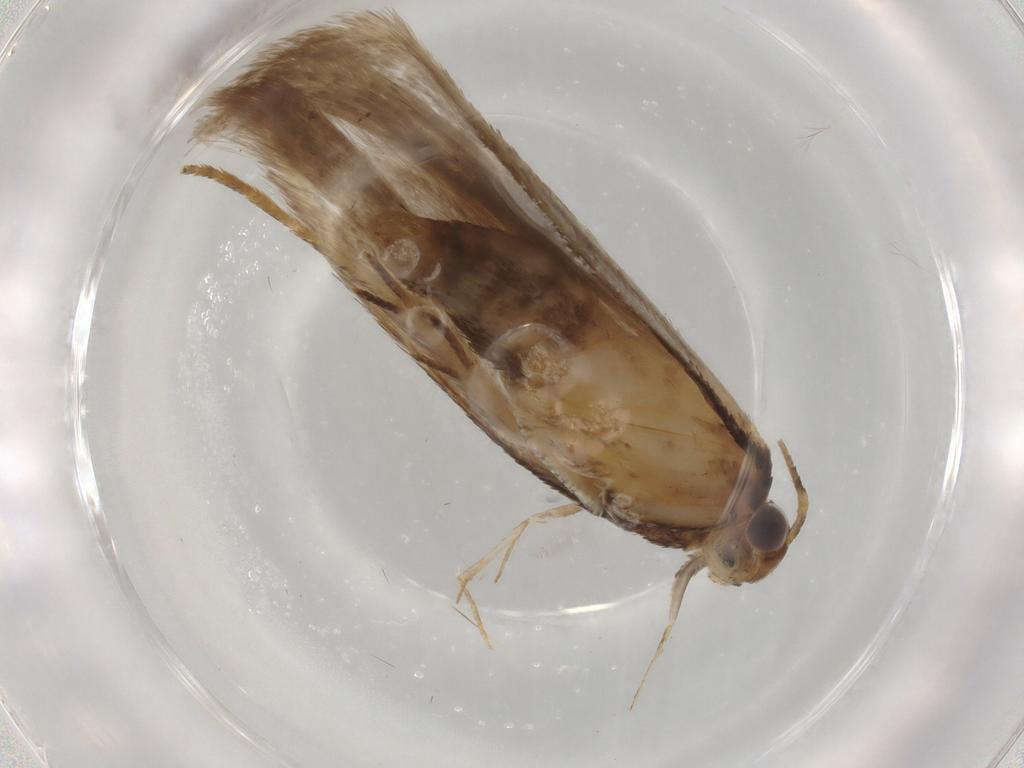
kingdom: Animalia
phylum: Arthropoda
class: Insecta
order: Lepidoptera
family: Gelechiidae
